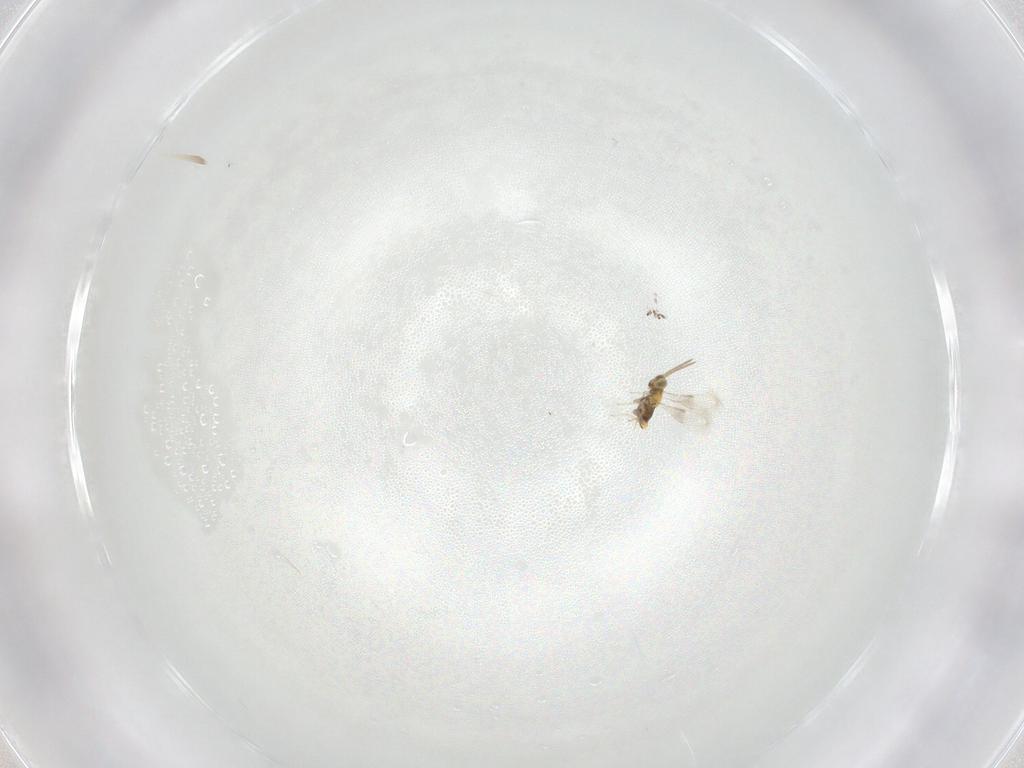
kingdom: Animalia
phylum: Arthropoda
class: Insecta
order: Hymenoptera
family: Aphelinidae
